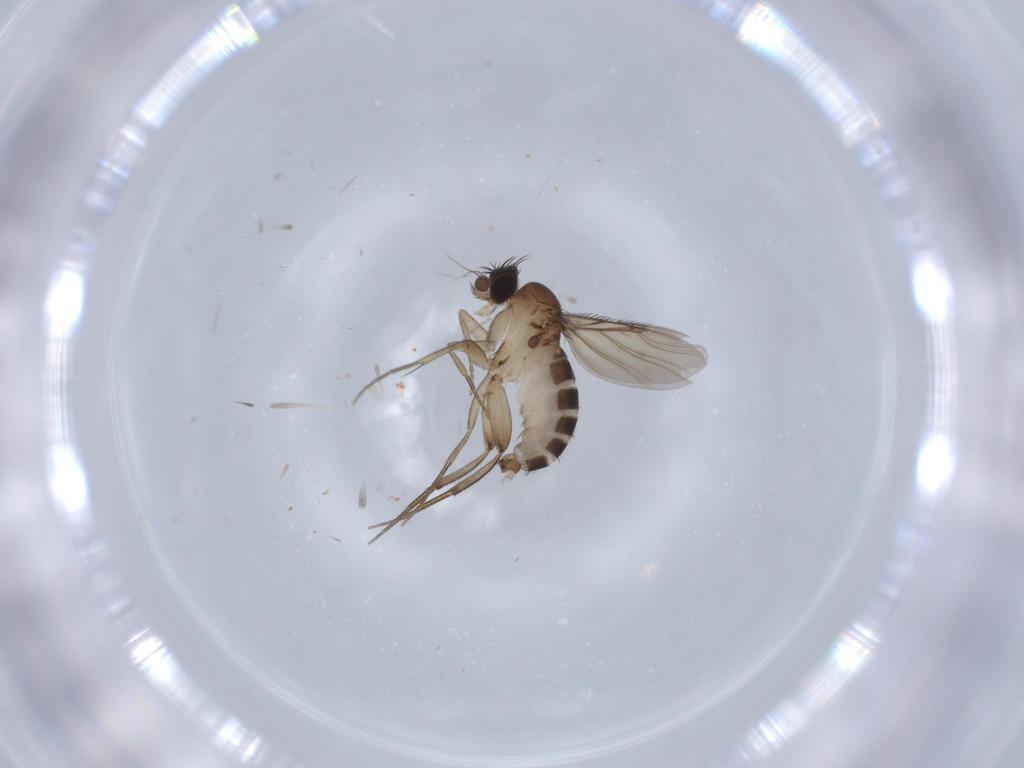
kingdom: Animalia
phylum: Arthropoda
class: Insecta
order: Diptera
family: Phoridae
